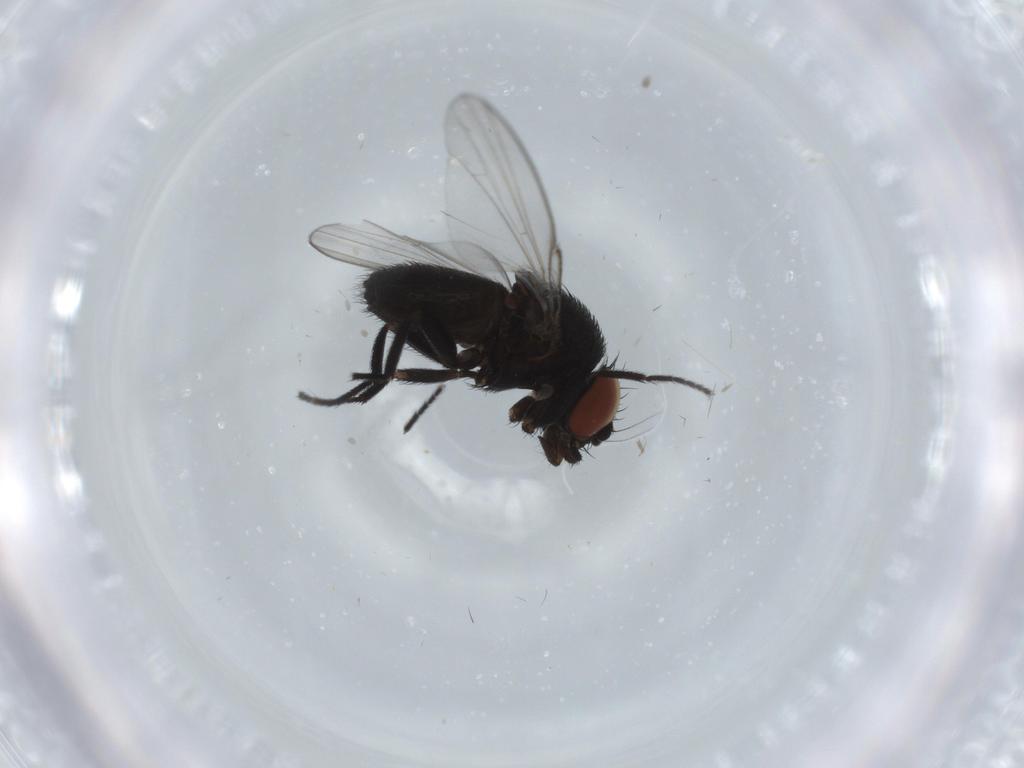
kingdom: Animalia
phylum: Arthropoda
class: Insecta
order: Diptera
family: Milichiidae
